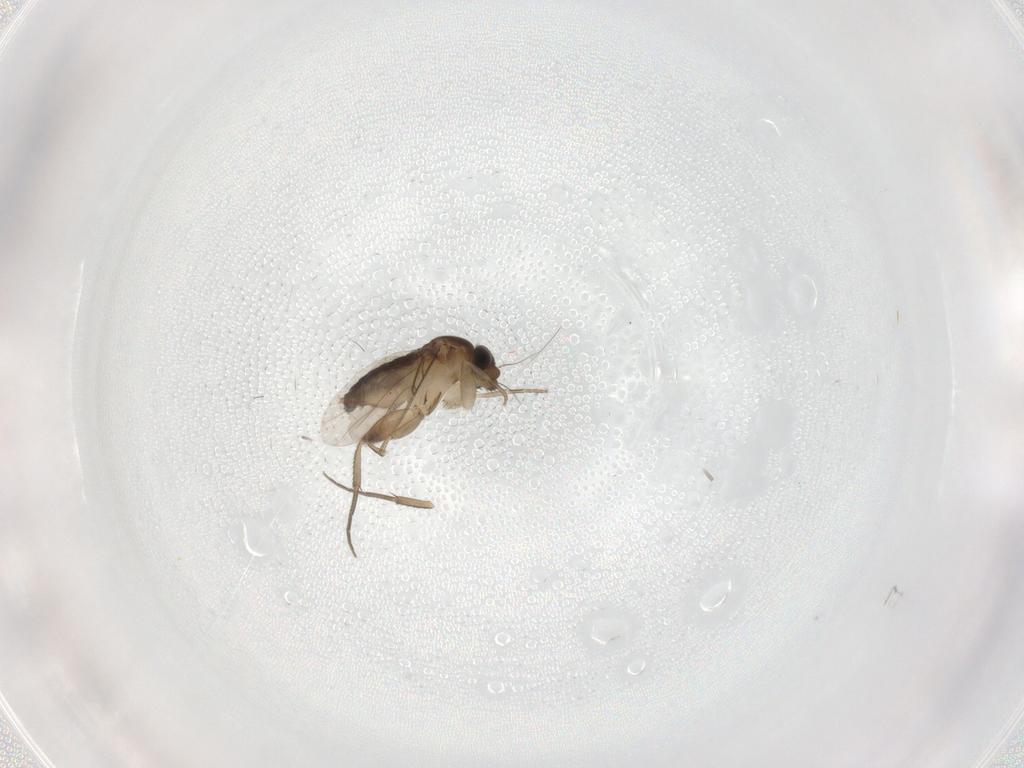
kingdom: Animalia
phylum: Arthropoda
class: Insecta
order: Diptera
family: Phoridae
